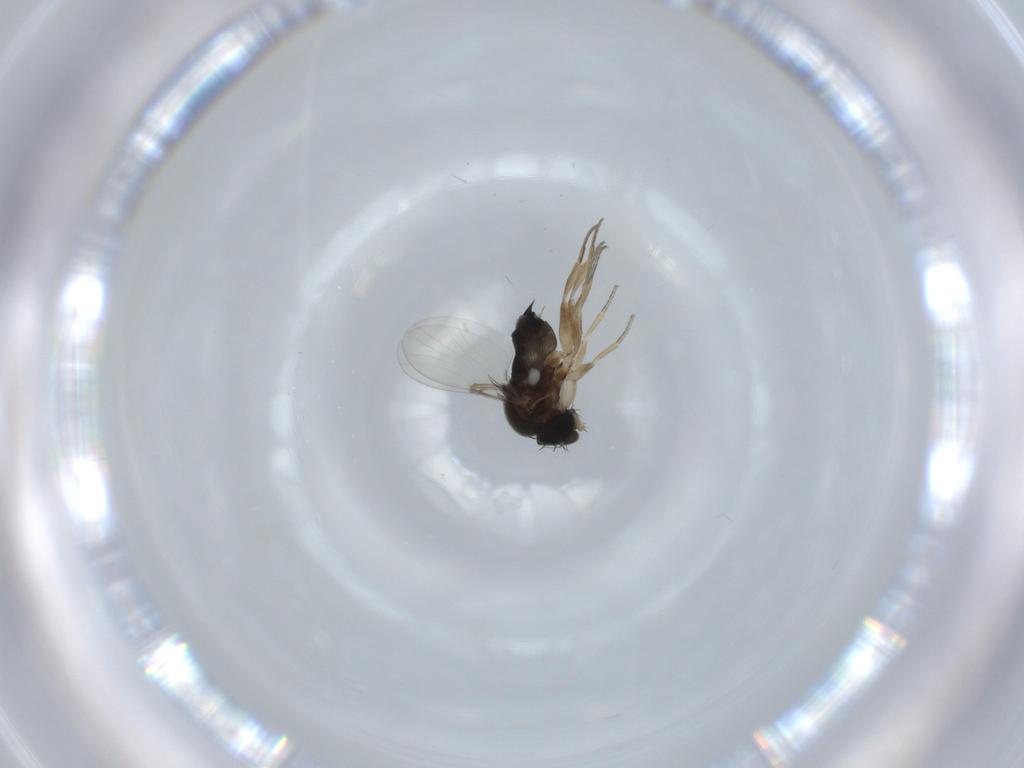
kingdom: Animalia
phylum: Arthropoda
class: Insecta
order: Diptera
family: Phoridae
